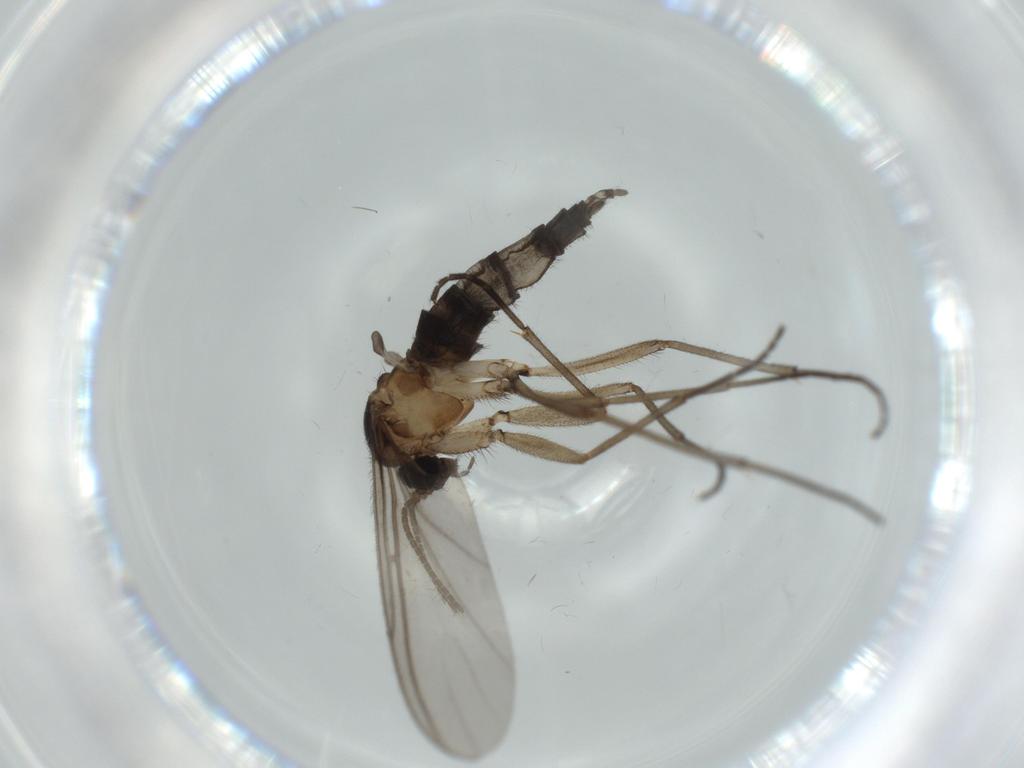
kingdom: Animalia
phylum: Arthropoda
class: Insecta
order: Diptera
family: Sciaridae
